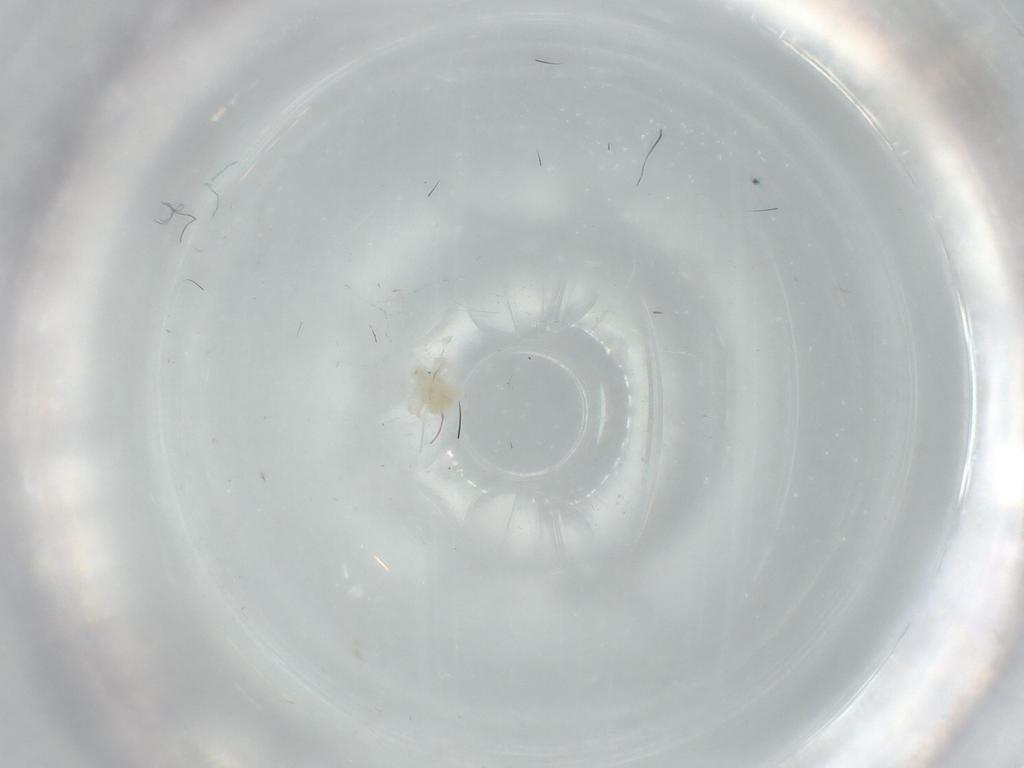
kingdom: Animalia
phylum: Arthropoda
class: Arachnida
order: Trombidiformes
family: Anystidae
